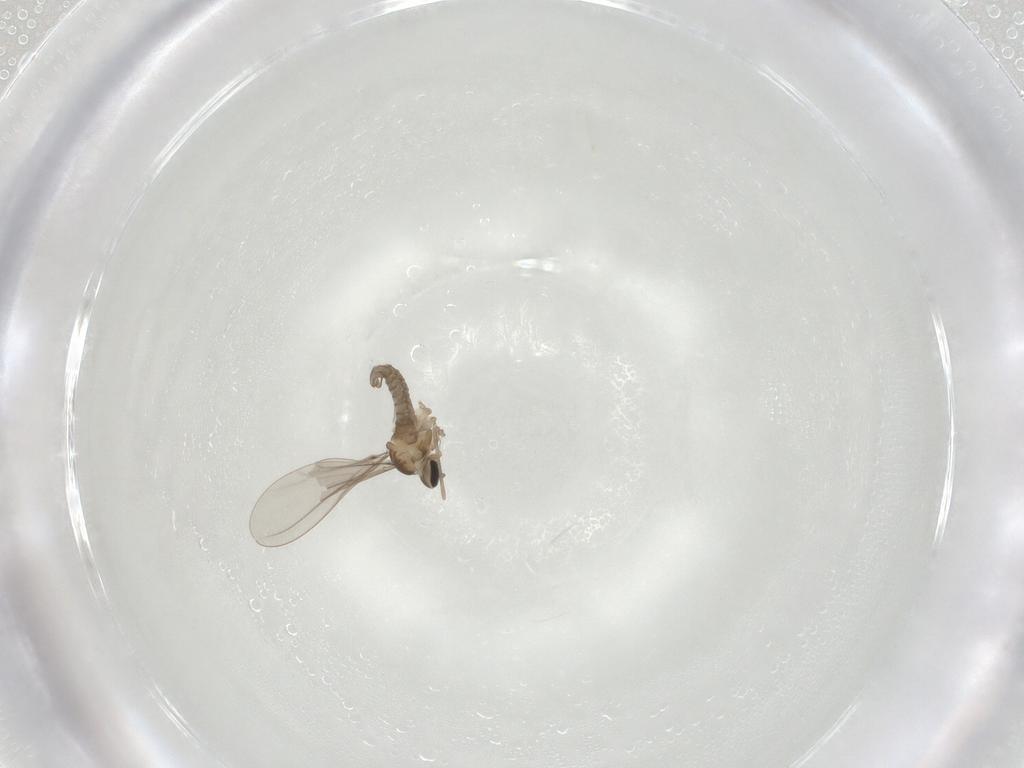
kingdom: Animalia
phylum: Arthropoda
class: Insecta
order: Diptera
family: Cecidomyiidae
